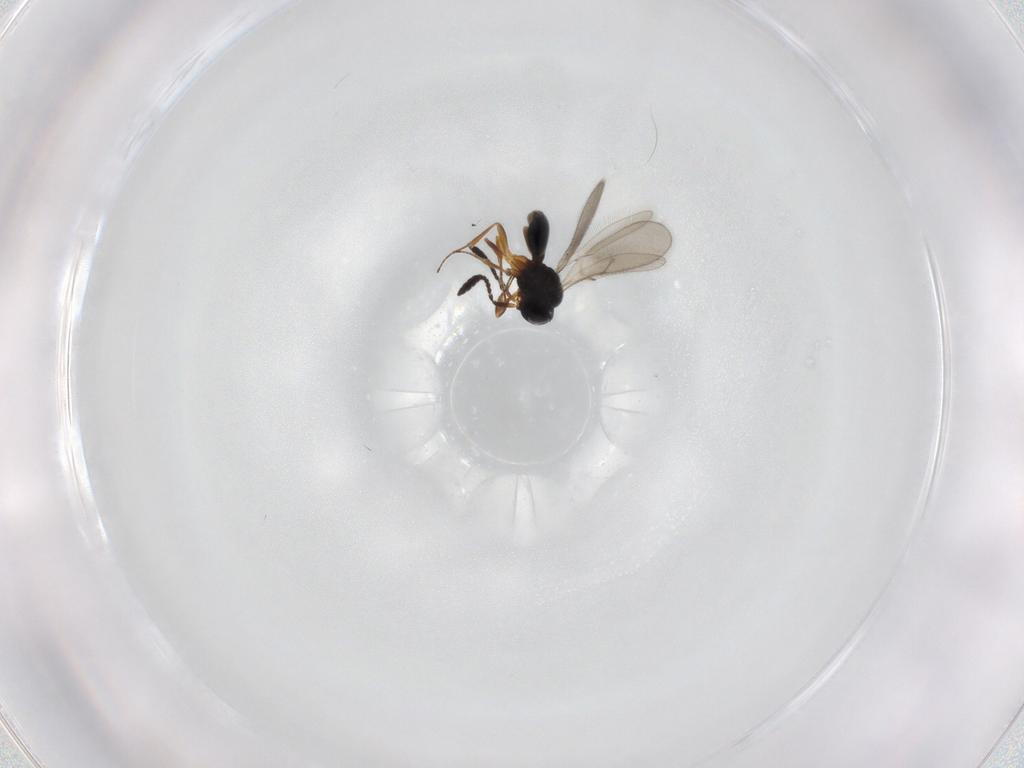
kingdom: Animalia
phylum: Arthropoda
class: Insecta
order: Hymenoptera
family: Scelionidae
